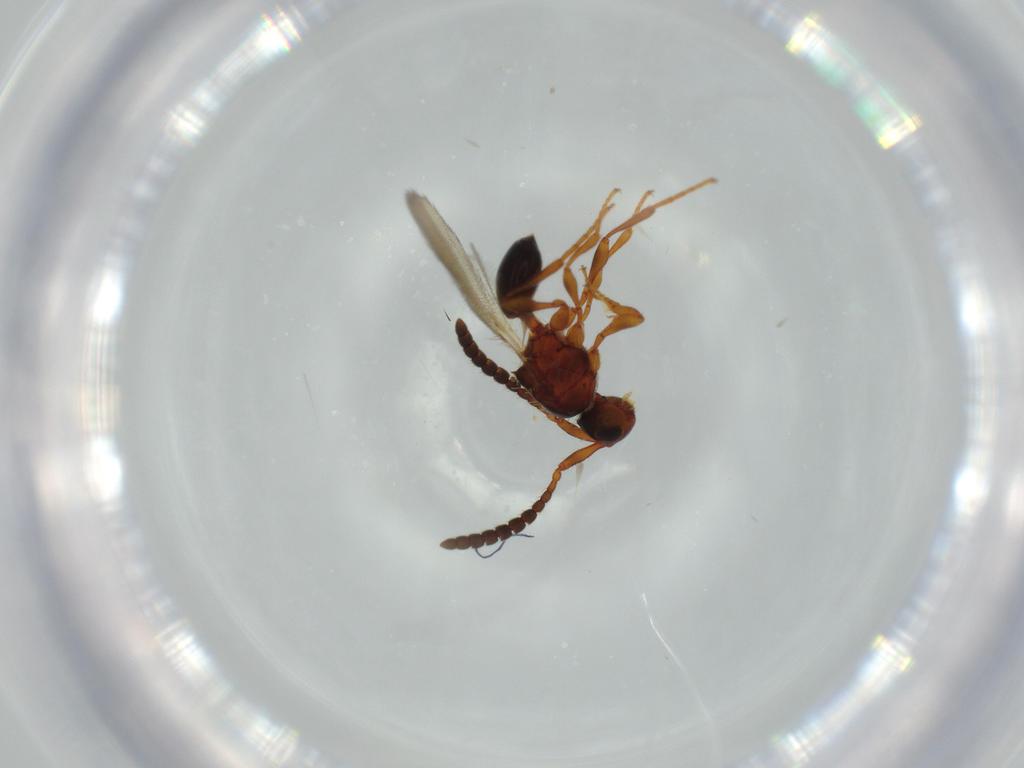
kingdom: Animalia
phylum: Arthropoda
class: Insecta
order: Hymenoptera
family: Diapriidae
